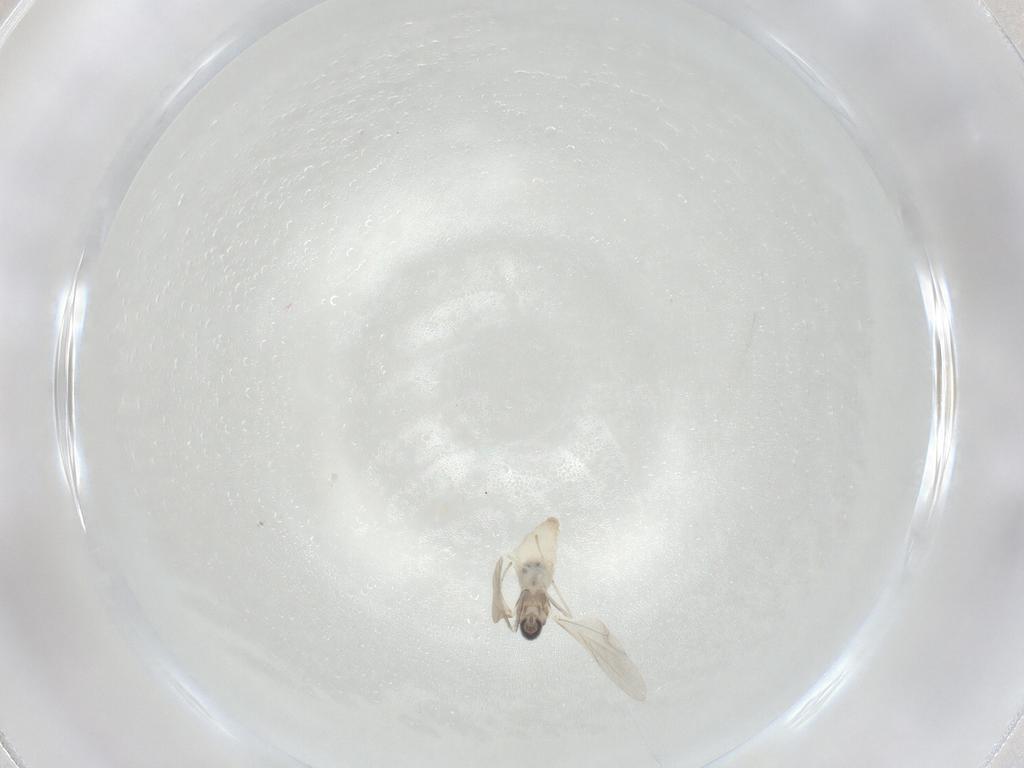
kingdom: Animalia
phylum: Arthropoda
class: Insecta
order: Diptera
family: Cecidomyiidae
